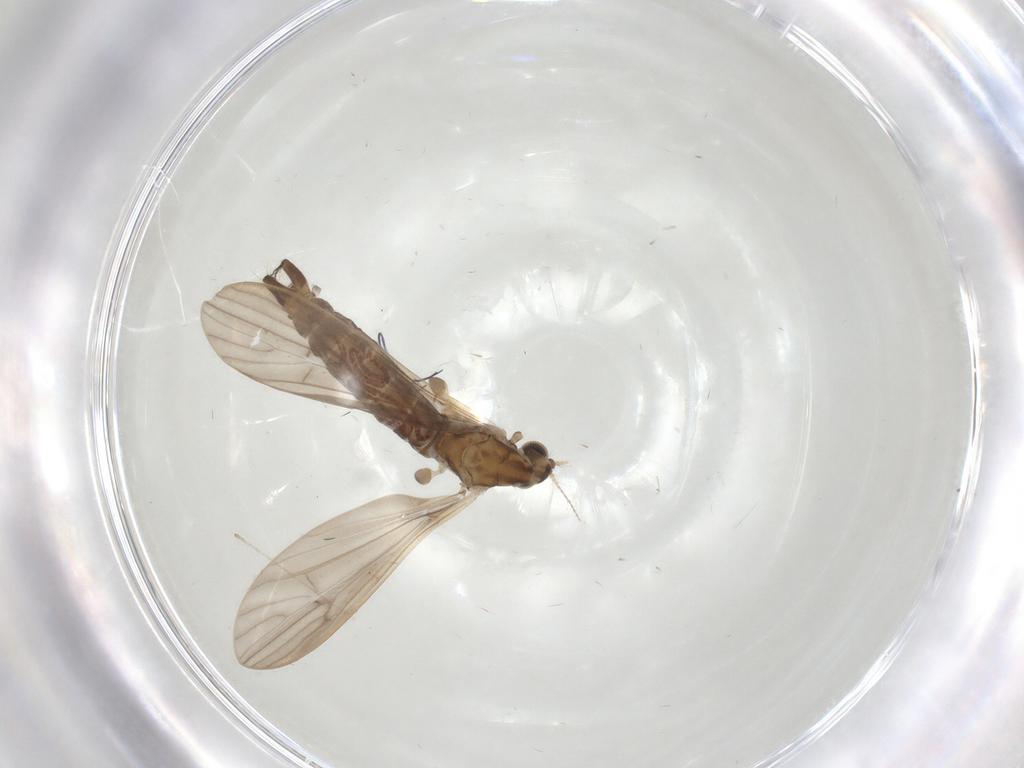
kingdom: Animalia
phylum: Arthropoda
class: Insecta
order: Diptera
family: Limoniidae
